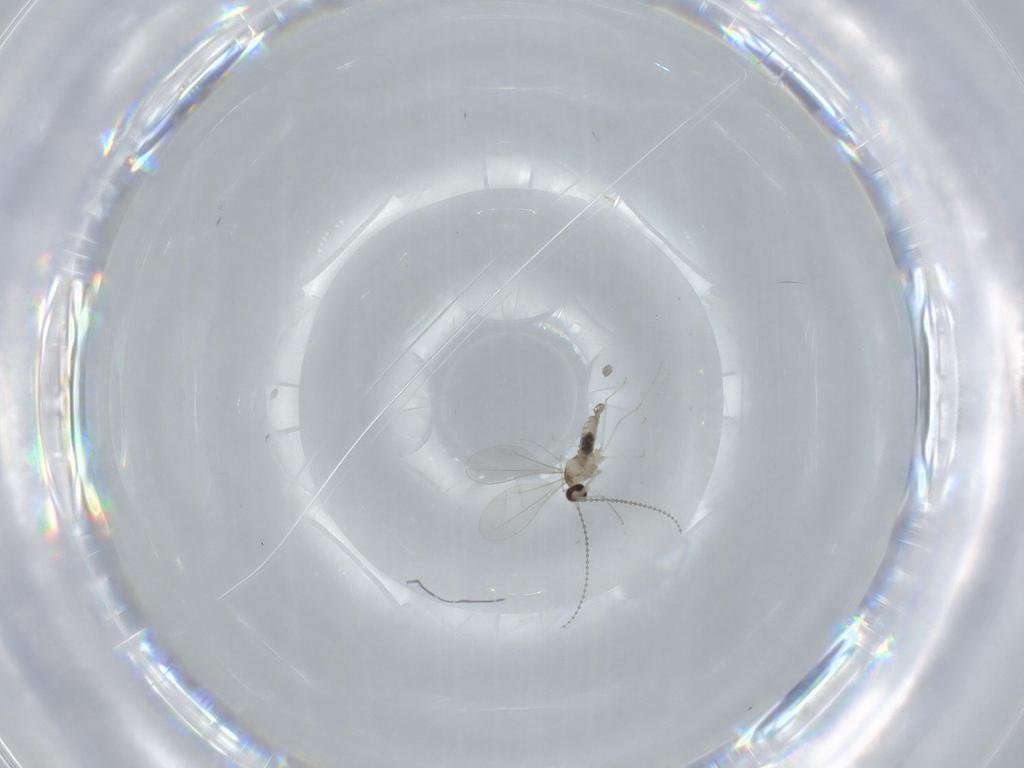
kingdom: Animalia
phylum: Arthropoda
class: Insecta
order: Diptera
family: Cecidomyiidae
